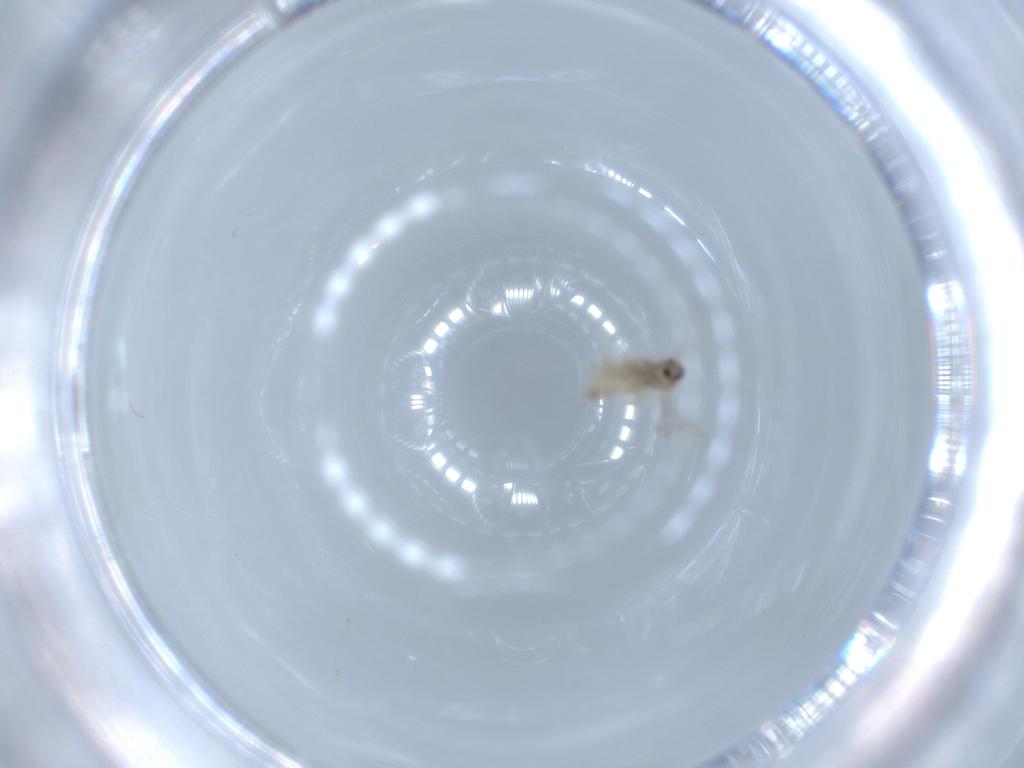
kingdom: Animalia
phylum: Arthropoda
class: Insecta
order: Diptera
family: Cecidomyiidae
